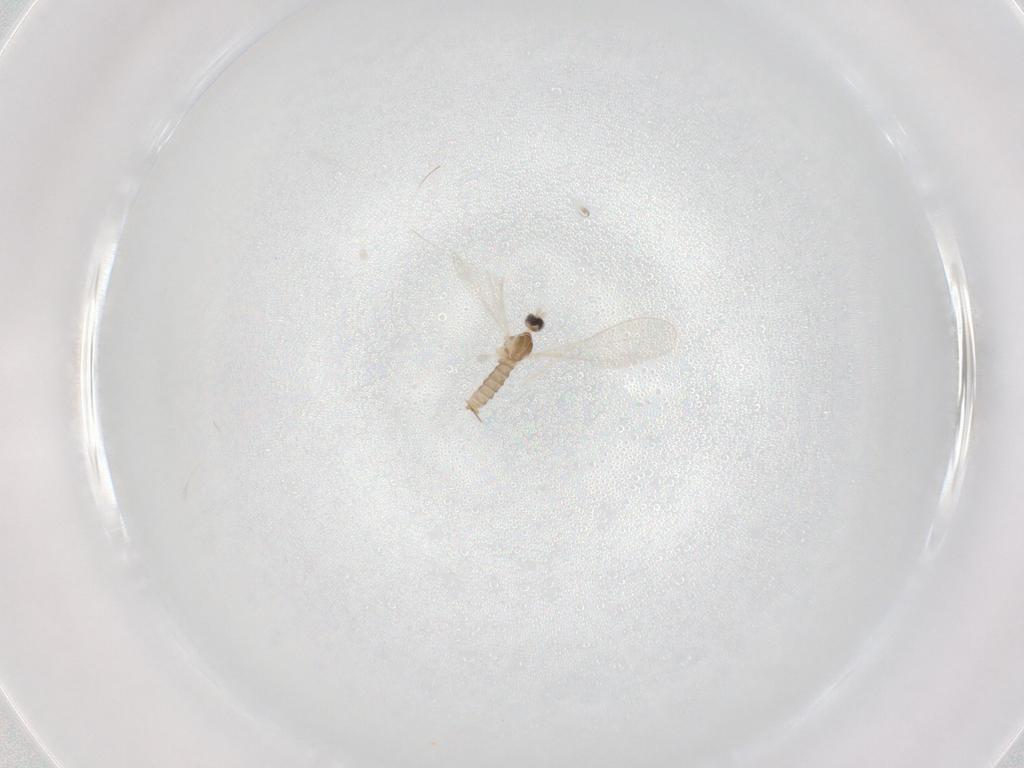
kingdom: Animalia
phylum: Arthropoda
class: Insecta
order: Diptera
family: Cecidomyiidae
